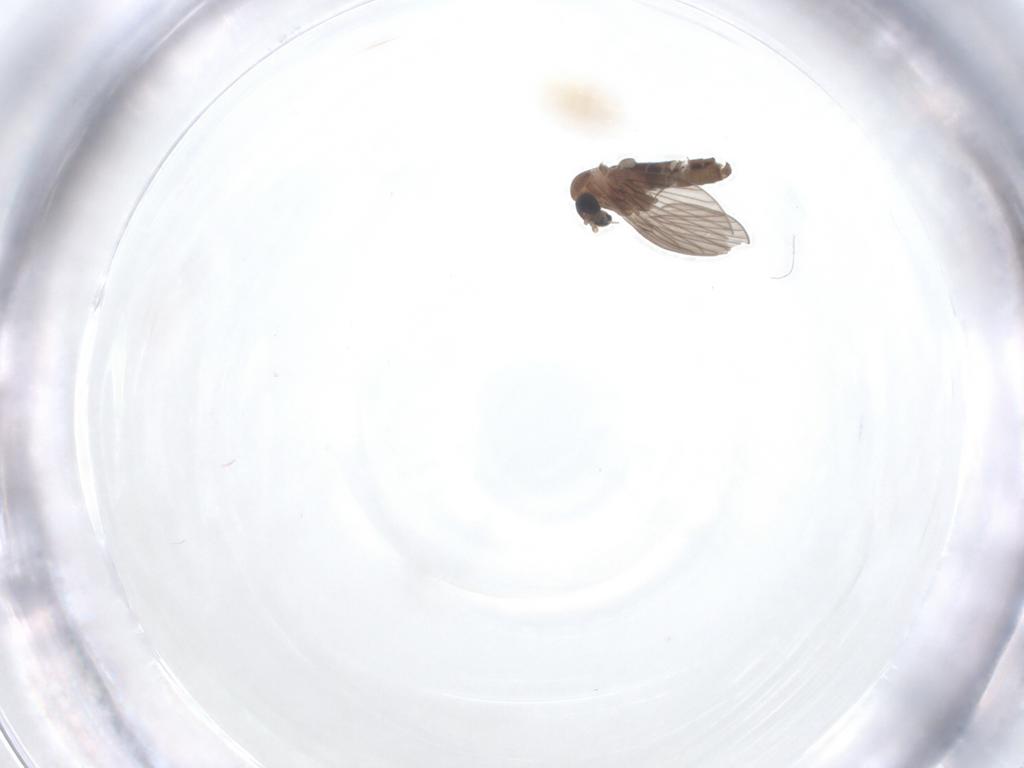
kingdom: Animalia
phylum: Arthropoda
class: Insecta
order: Diptera
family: Psychodidae
